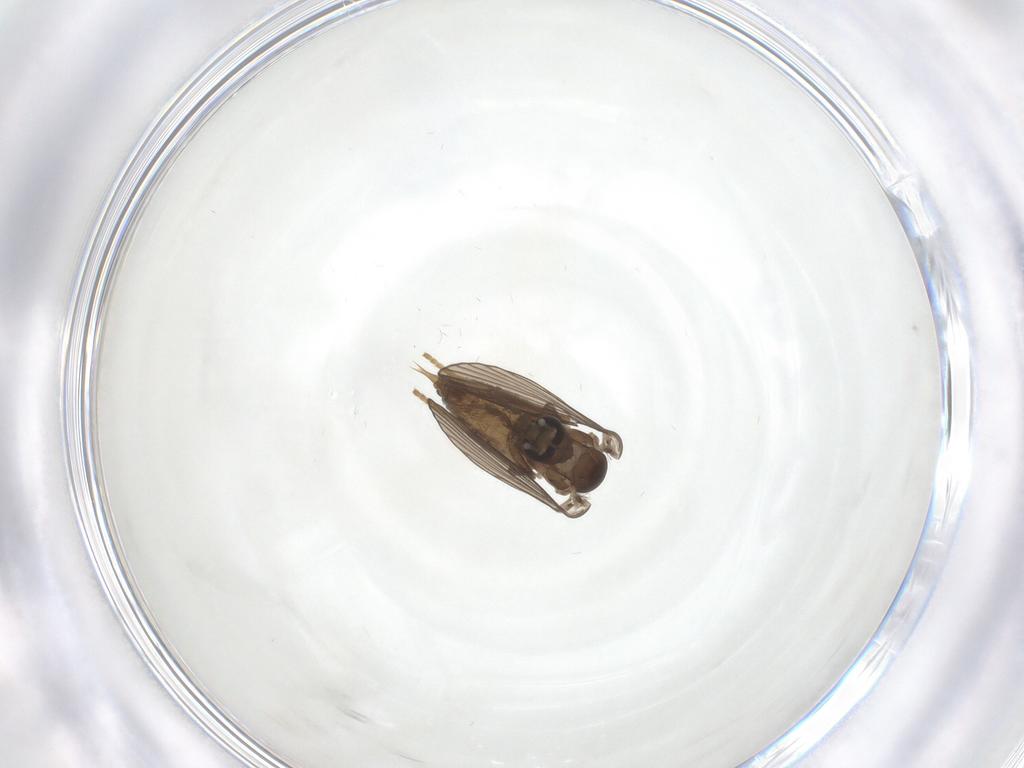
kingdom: Animalia
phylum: Arthropoda
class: Insecta
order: Diptera
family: Psychodidae
